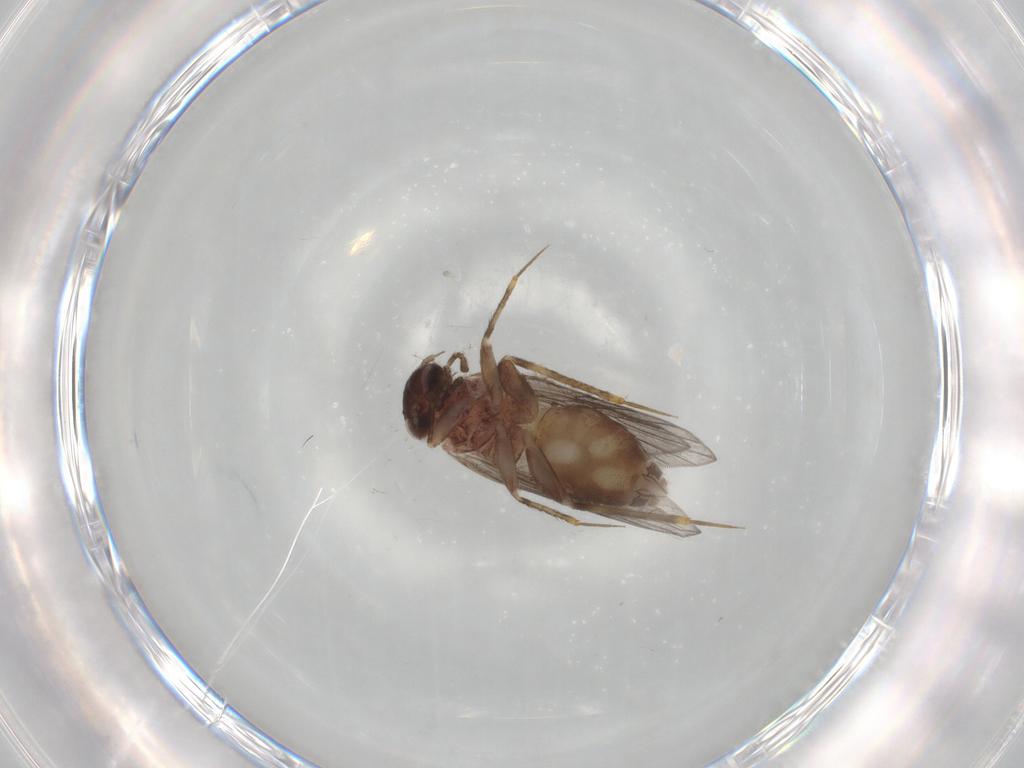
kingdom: Animalia
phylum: Arthropoda
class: Insecta
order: Psocodea
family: Lepidopsocidae
